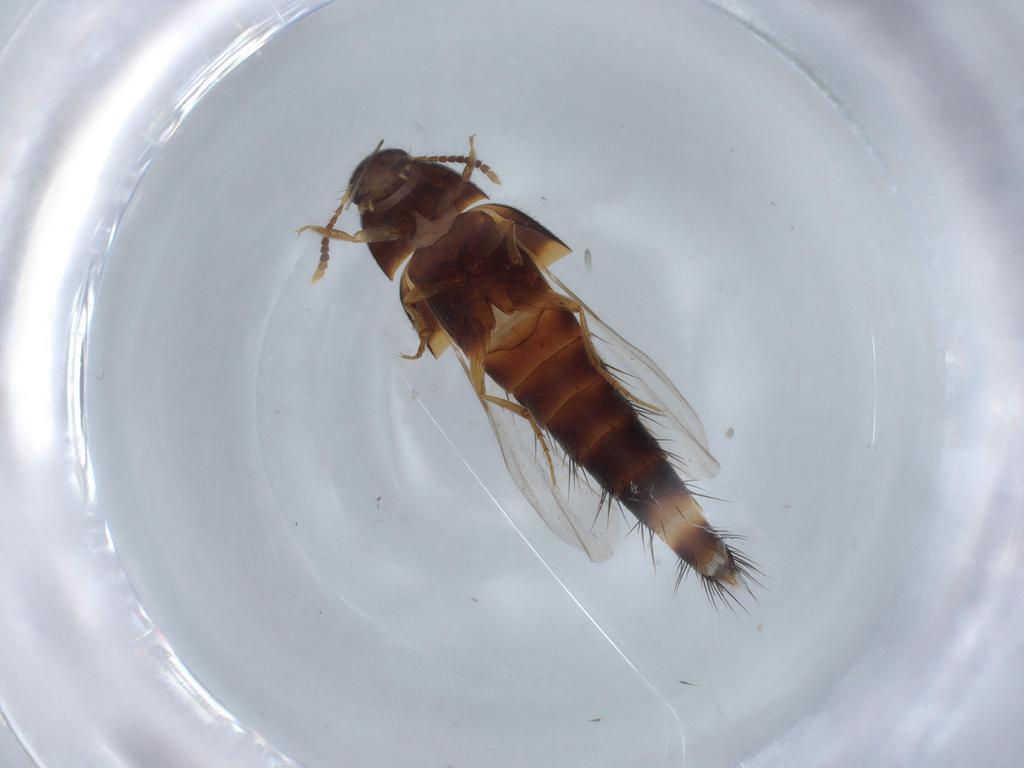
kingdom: Animalia
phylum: Arthropoda
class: Insecta
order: Coleoptera
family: Staphylinidae
